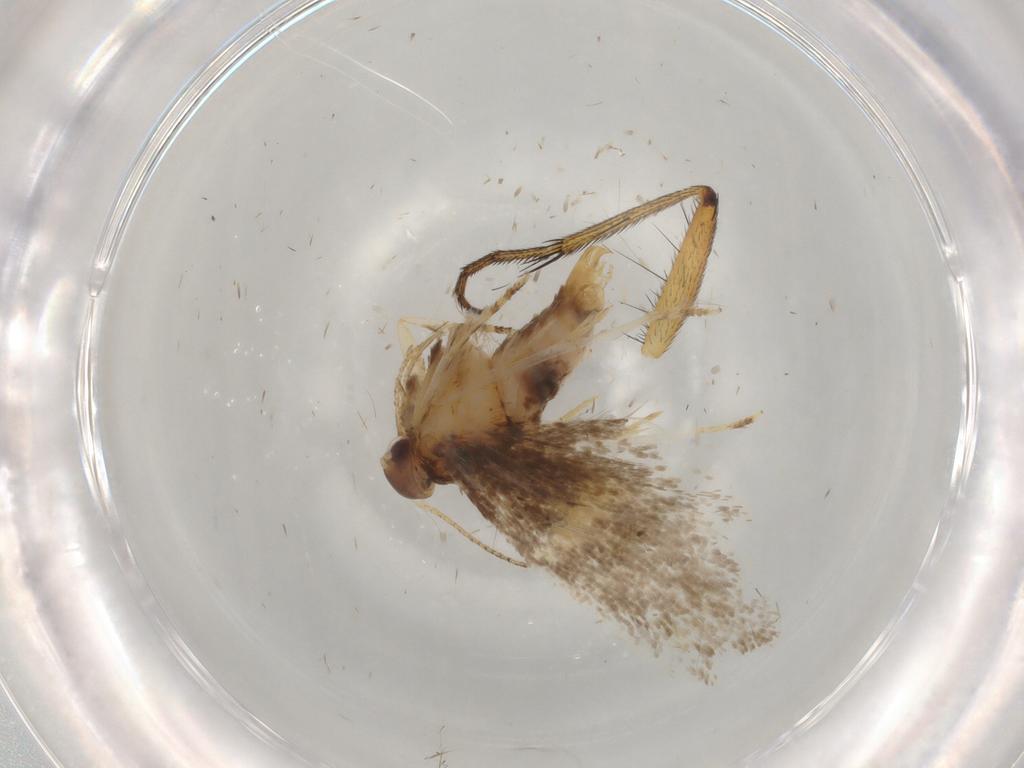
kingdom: Animalia
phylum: Arthropoda
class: Insecta
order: Lepidoptera
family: Oecophoridae
